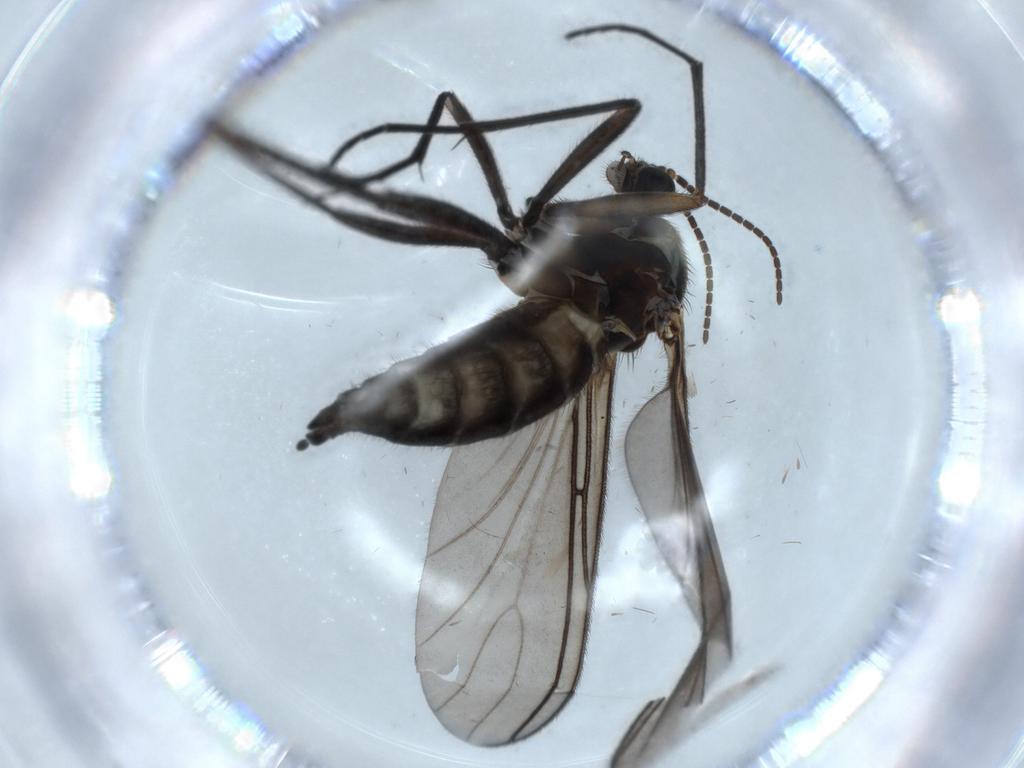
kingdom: Animalia
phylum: Arthropoda
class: Insecta
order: Diptera
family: Sciaridae
